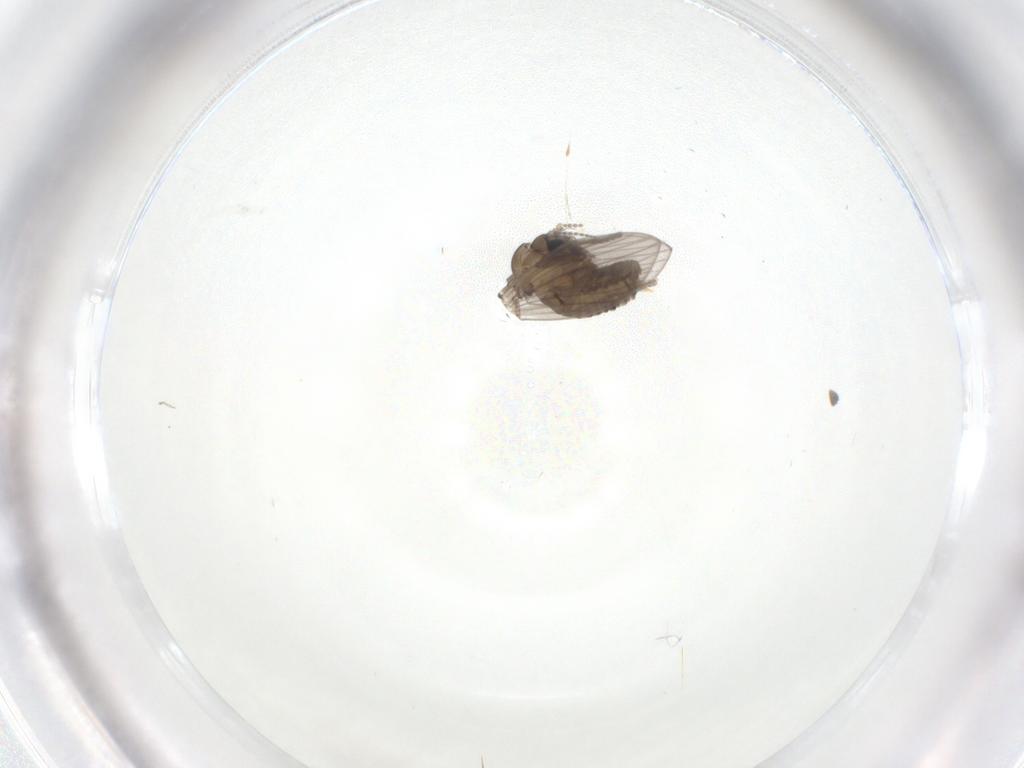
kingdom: Animalia
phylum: Arthropoda
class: Insecta
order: Diptera
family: Psychodidae
